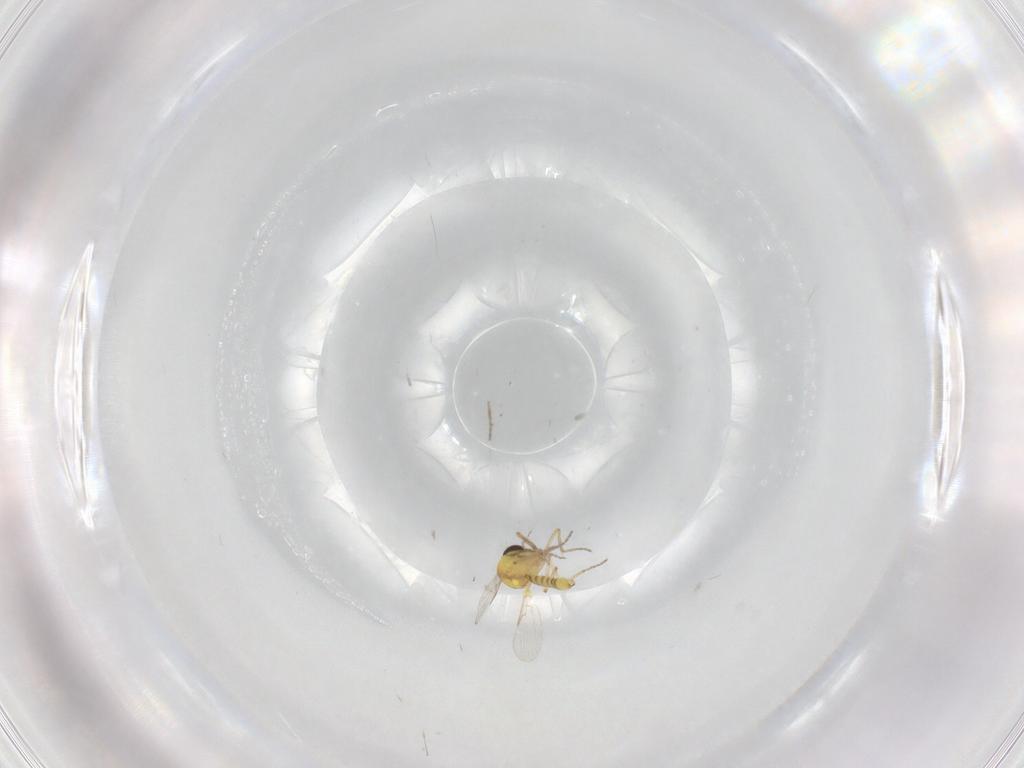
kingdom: Animalia
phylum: Arthropoda
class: Insecta
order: Diptera
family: Ceratopogonidae
